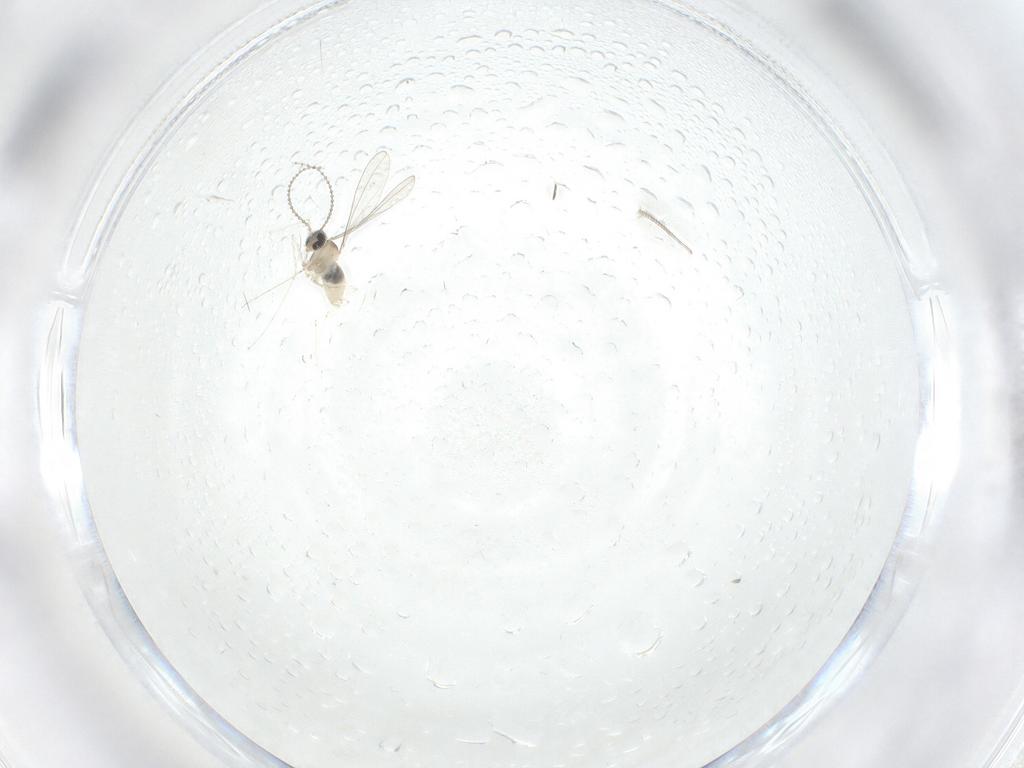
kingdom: Animalia
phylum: Arthropoda
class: Insecta
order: Diptera
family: Phoridae
